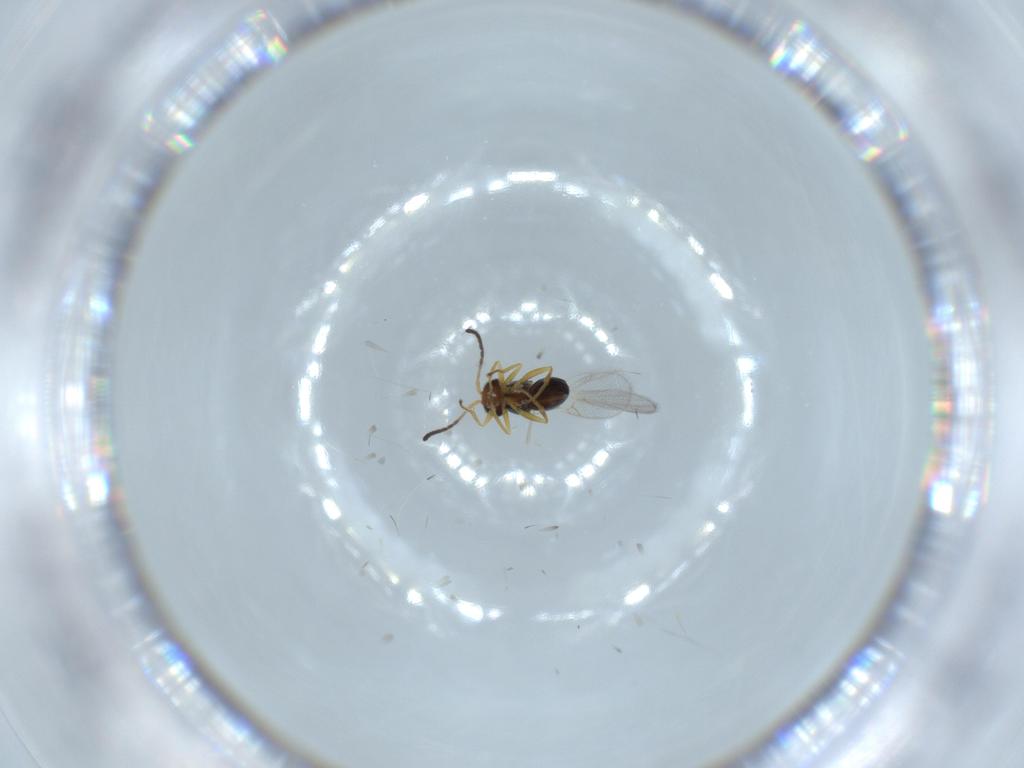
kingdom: Animalia
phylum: Arthropoda
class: Insecta
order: Hymenoptera
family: Figitidae
